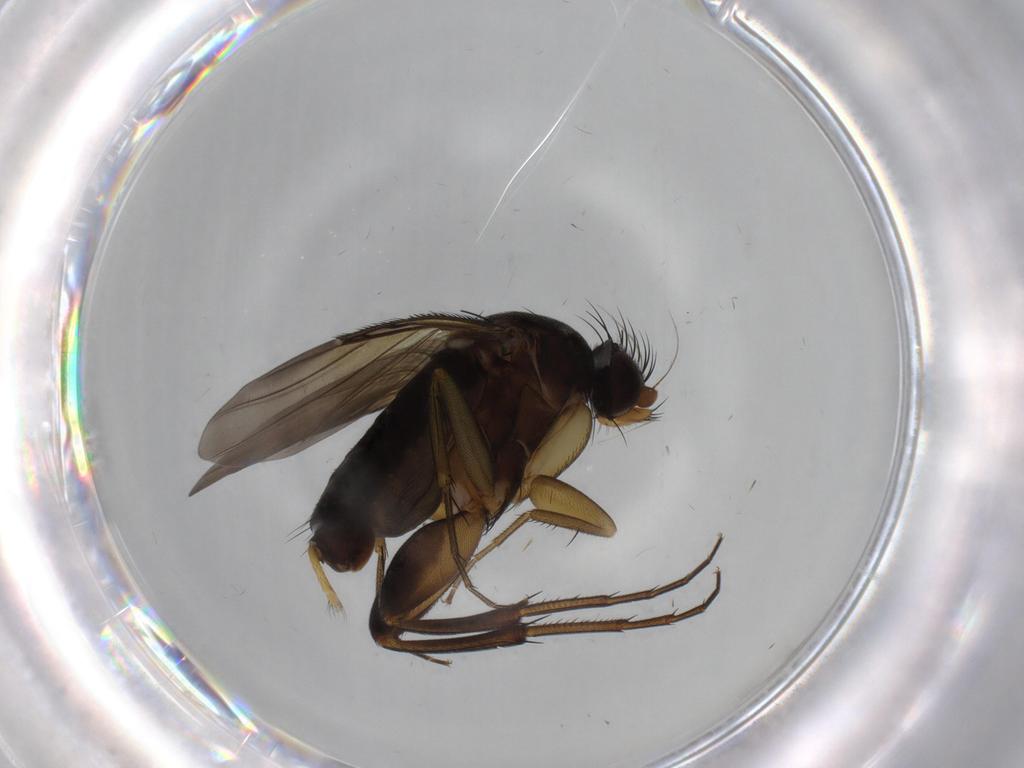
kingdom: Animalia
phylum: Arthropoda
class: Insecta
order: Diptera
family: Phoridae
